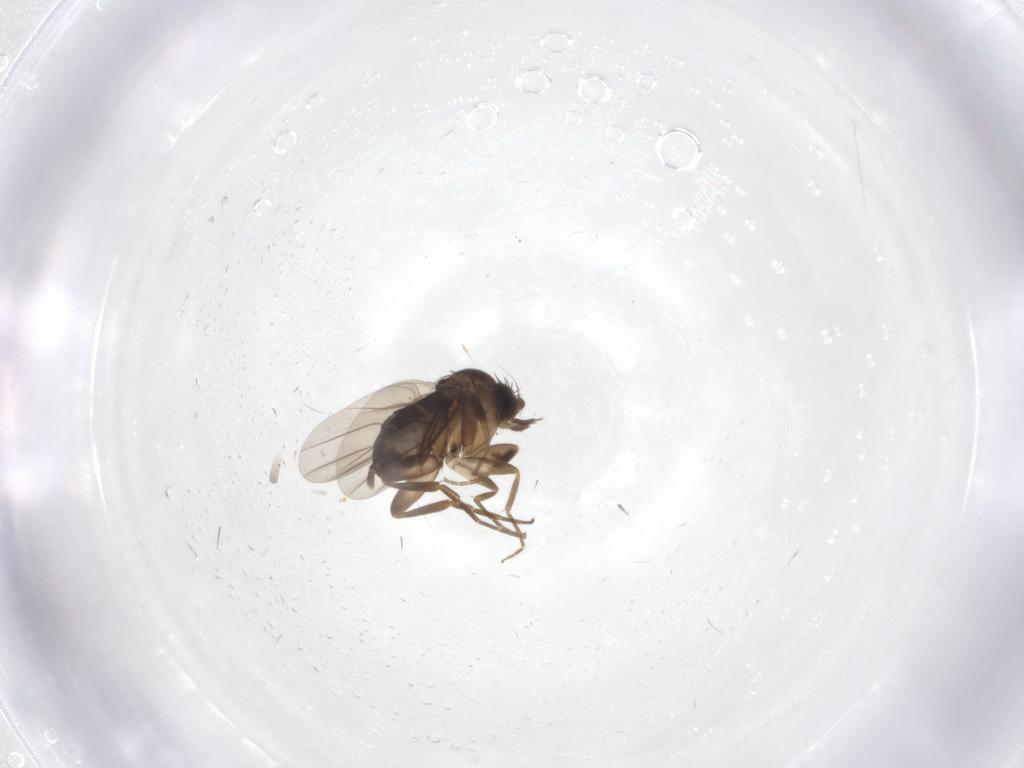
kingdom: Animalia
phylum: Arthropoda
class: Insecta
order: Diptera
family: Phoridae
